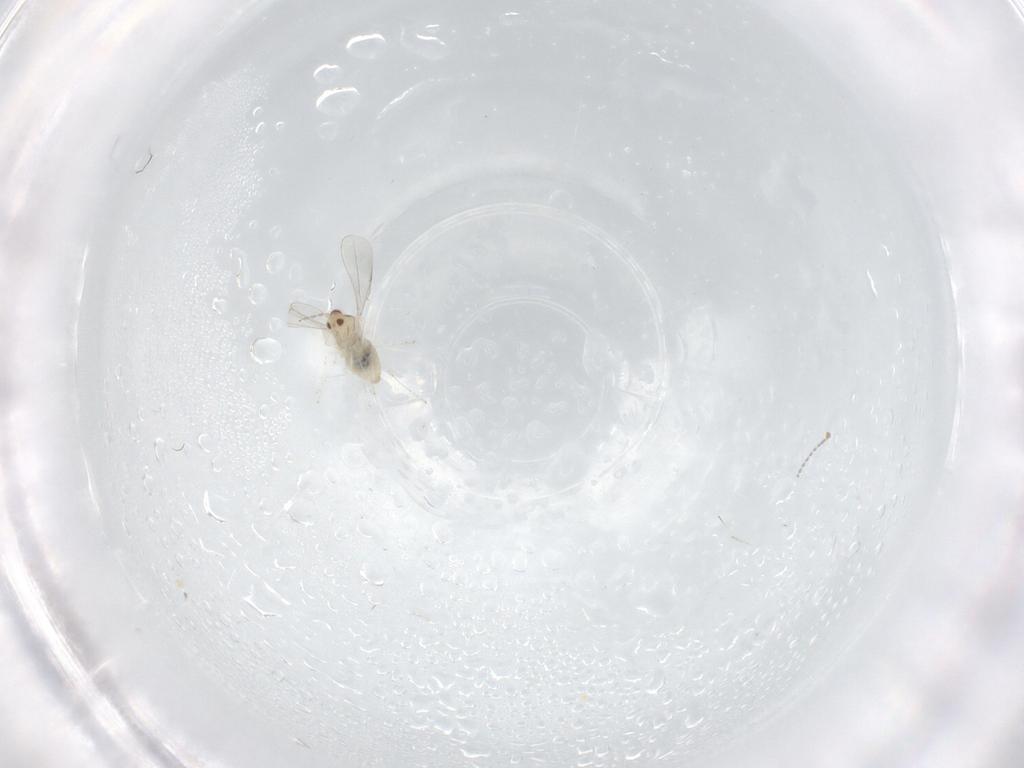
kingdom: Animalia
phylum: Arthropoda
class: Insecta
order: Diptera
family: Cecidomyiidae
